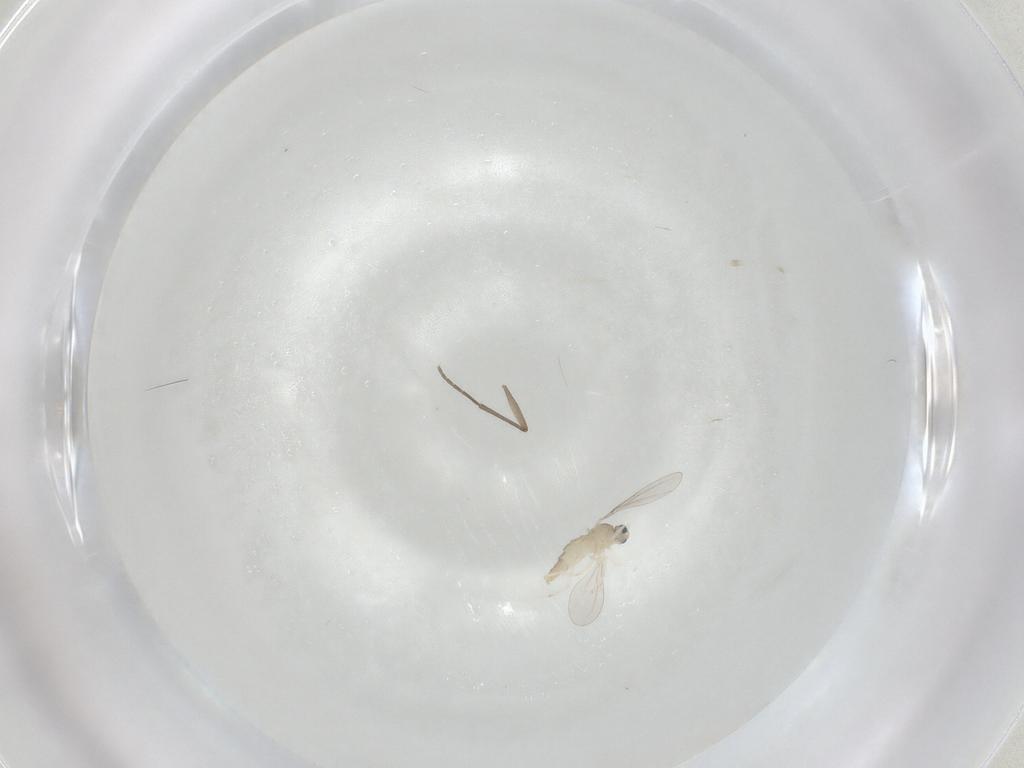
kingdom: Animalia
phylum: Arthropoda
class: Insecta
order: Diptera
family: Cecidomyiidae
